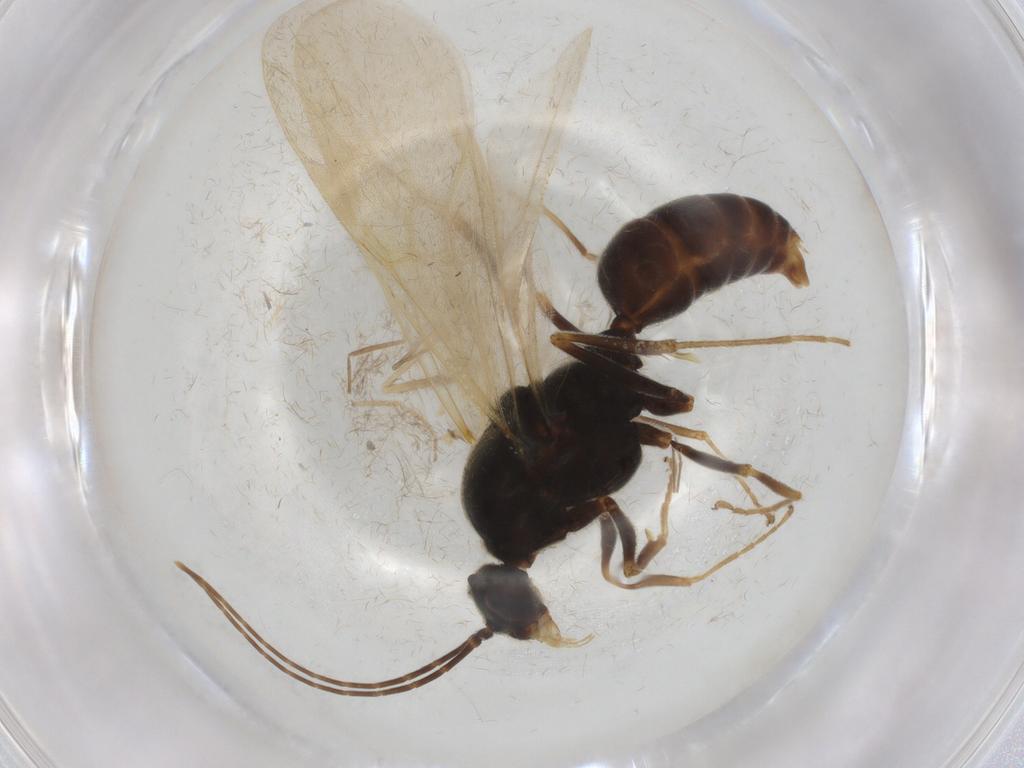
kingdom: Animalia
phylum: Arthropoda
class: Insecta
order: Hymenoptera
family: Formicidae
